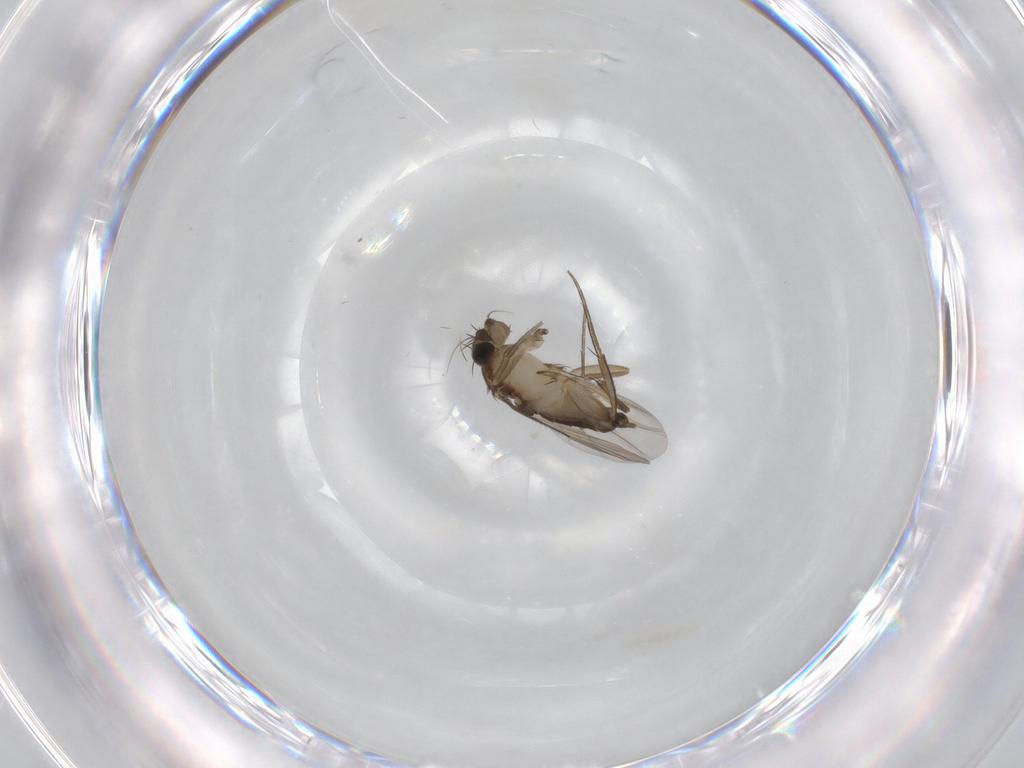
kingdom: Animalia
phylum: Arthropoda
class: Insecta
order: Diptera
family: Phoridae
